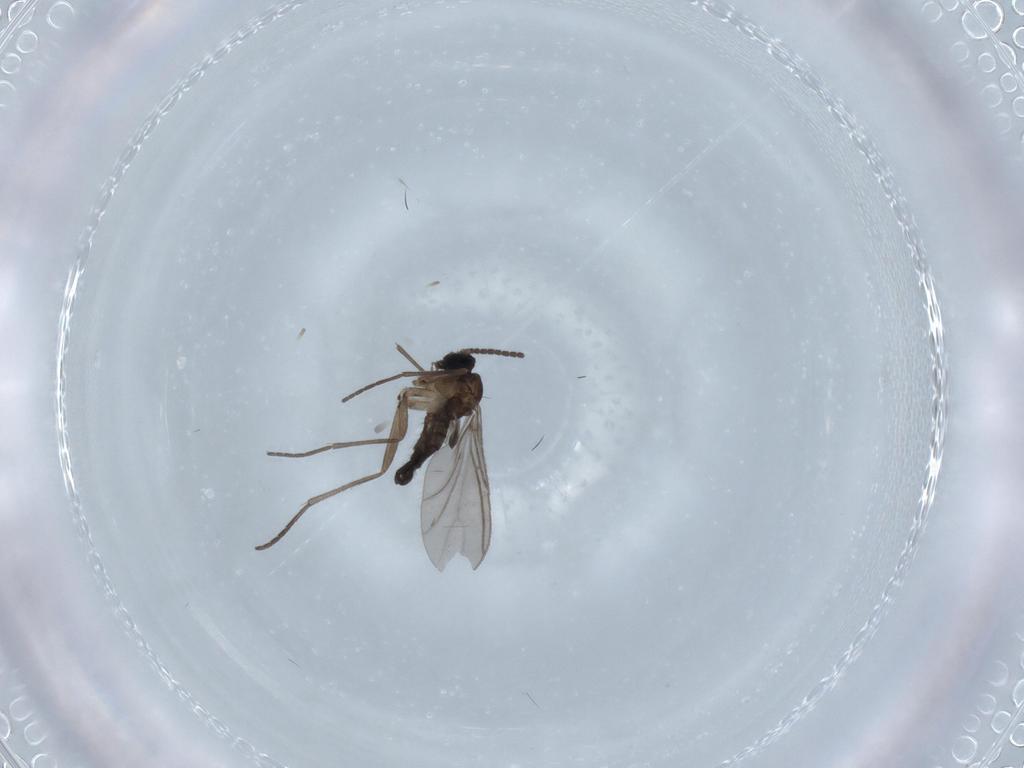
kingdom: Animalia
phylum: Arthropoda
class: Insecta
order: Diptera
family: Sciaridae
